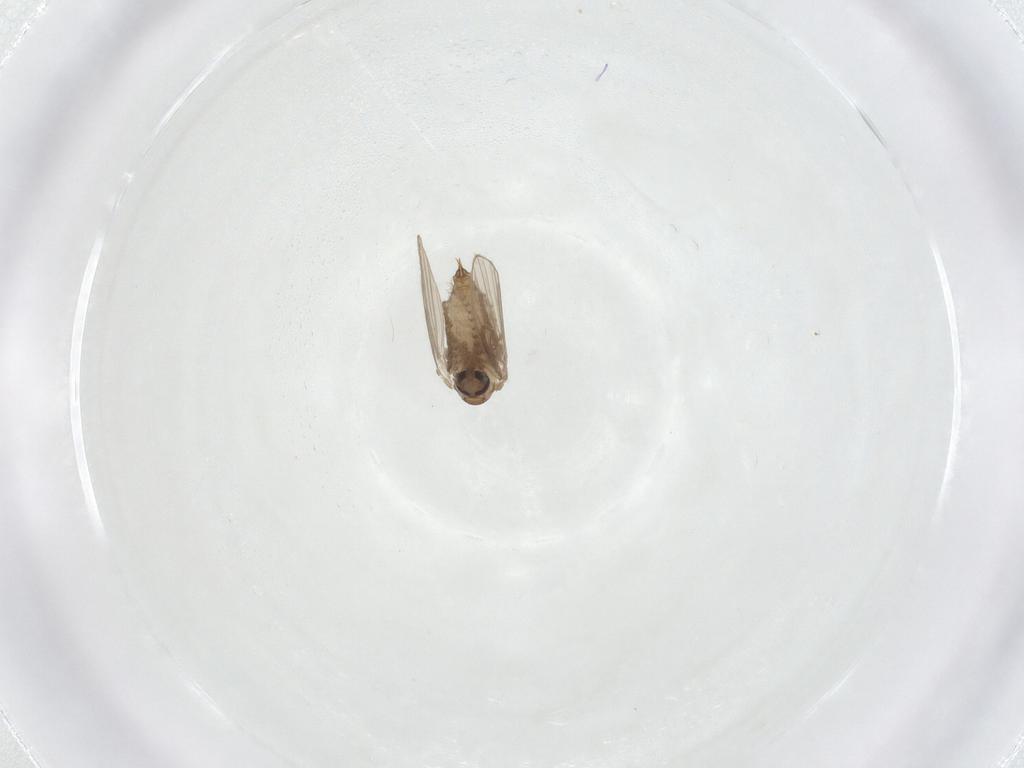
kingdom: Animalia
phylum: Arthropoda
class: Insecta
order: Diptera
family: Psychodidae
